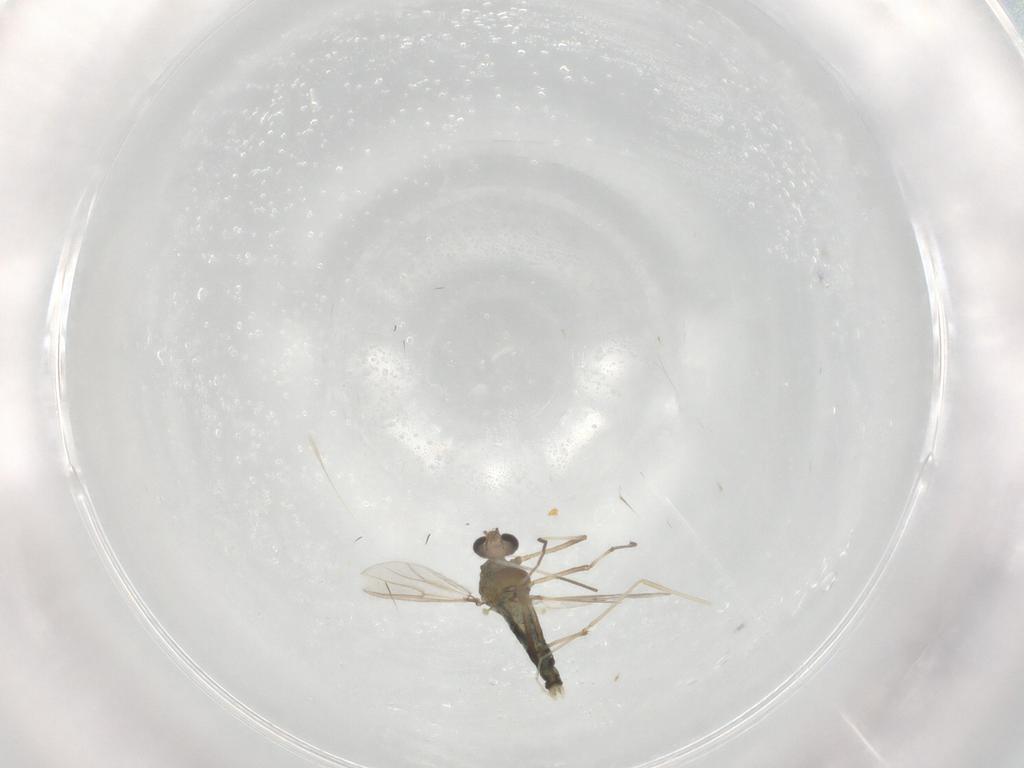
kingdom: Animalia
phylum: Arthropoda
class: Insecta
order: Diptera
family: Chironomidae
